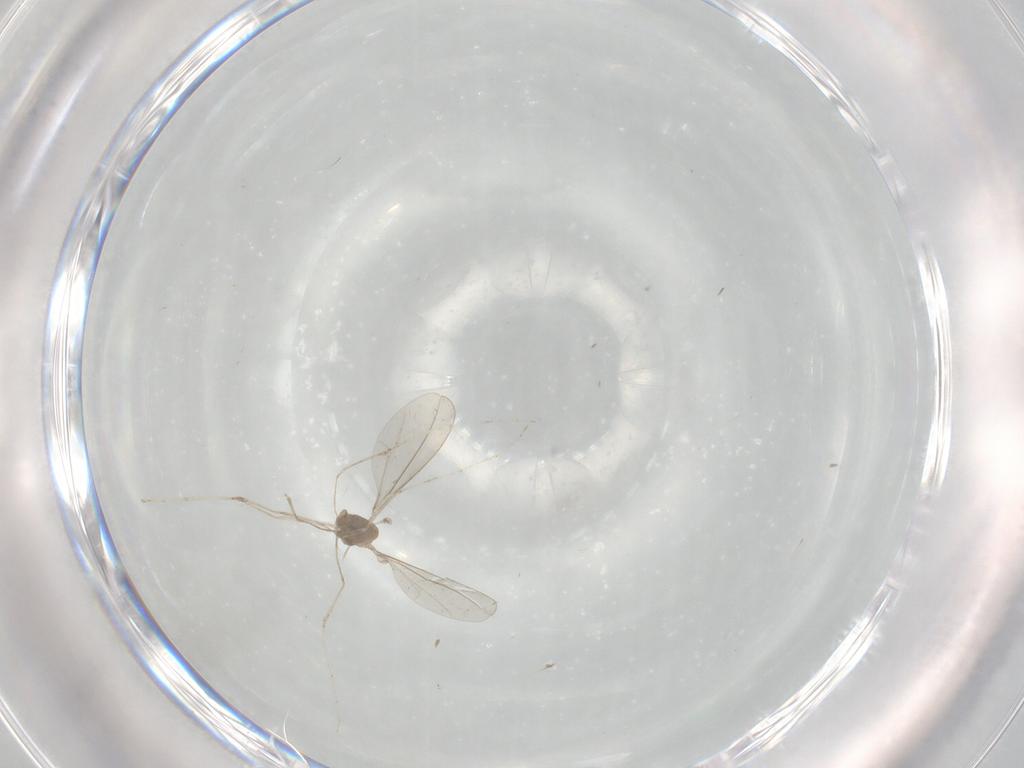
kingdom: Animalia
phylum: Arthropoda
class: Insecta
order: Diptera
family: Cecidomyiidae
